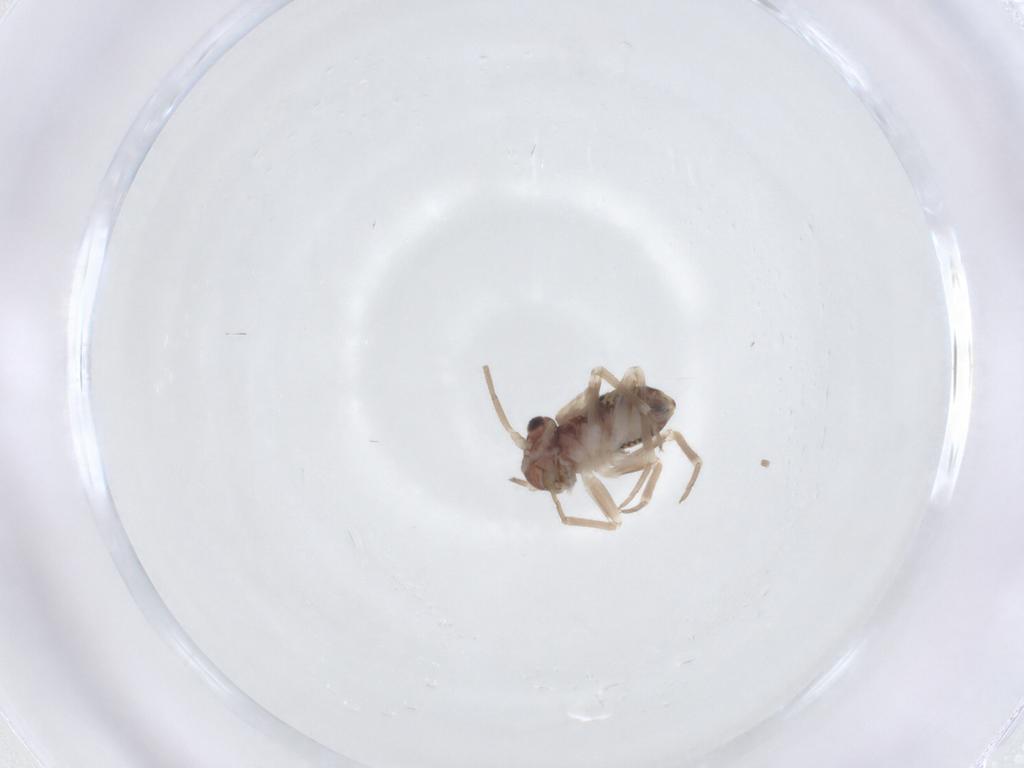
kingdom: Animalia
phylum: Arthropoda
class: Insecta
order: Psocodea
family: Psocidae
